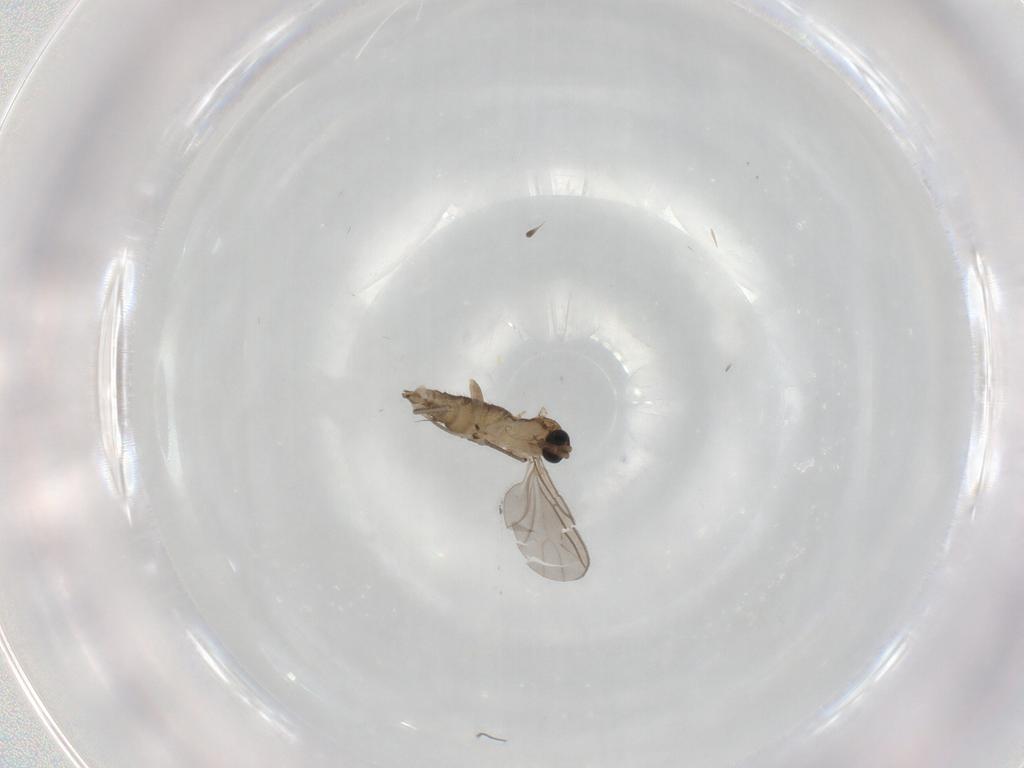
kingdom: Animalia
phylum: Arthropoda
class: Insecta
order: Diptera
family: Sciaridae
